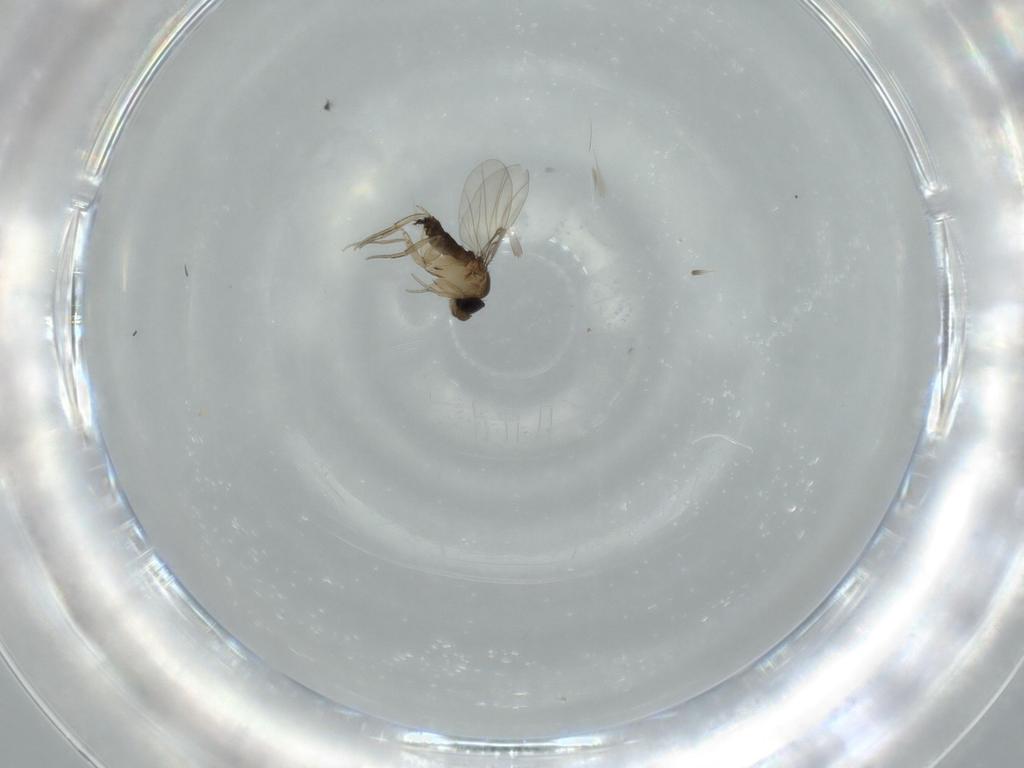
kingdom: Animalia
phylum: Arthropoda
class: Insecta
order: Diptera
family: Phoridae
